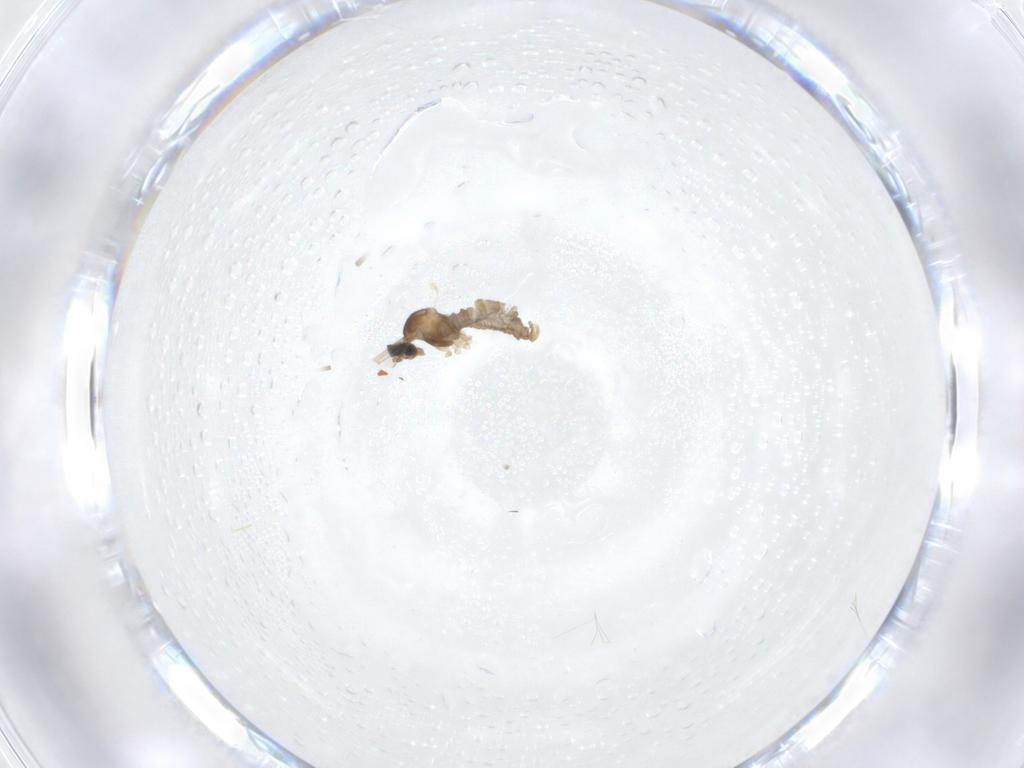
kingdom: Animalia
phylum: Arthropoda
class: Insecta
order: Diptera
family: Cecidomyiidae
